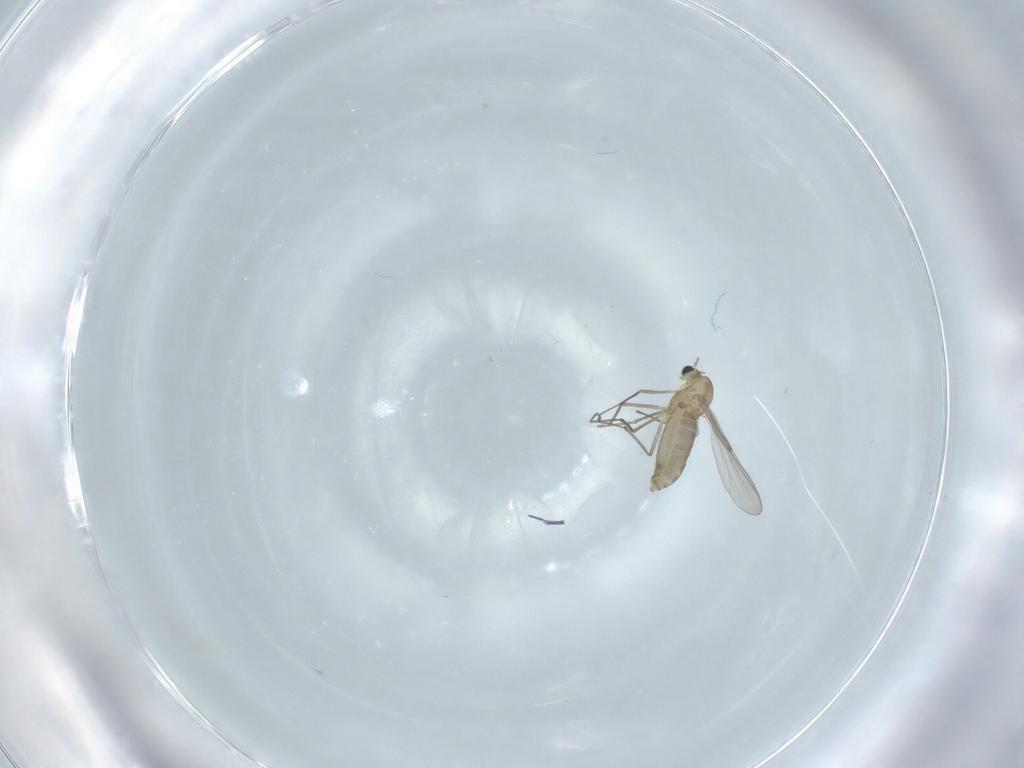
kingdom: Animalia
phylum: Arthropoda
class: Insecta
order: Diptera
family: Chironomidae
